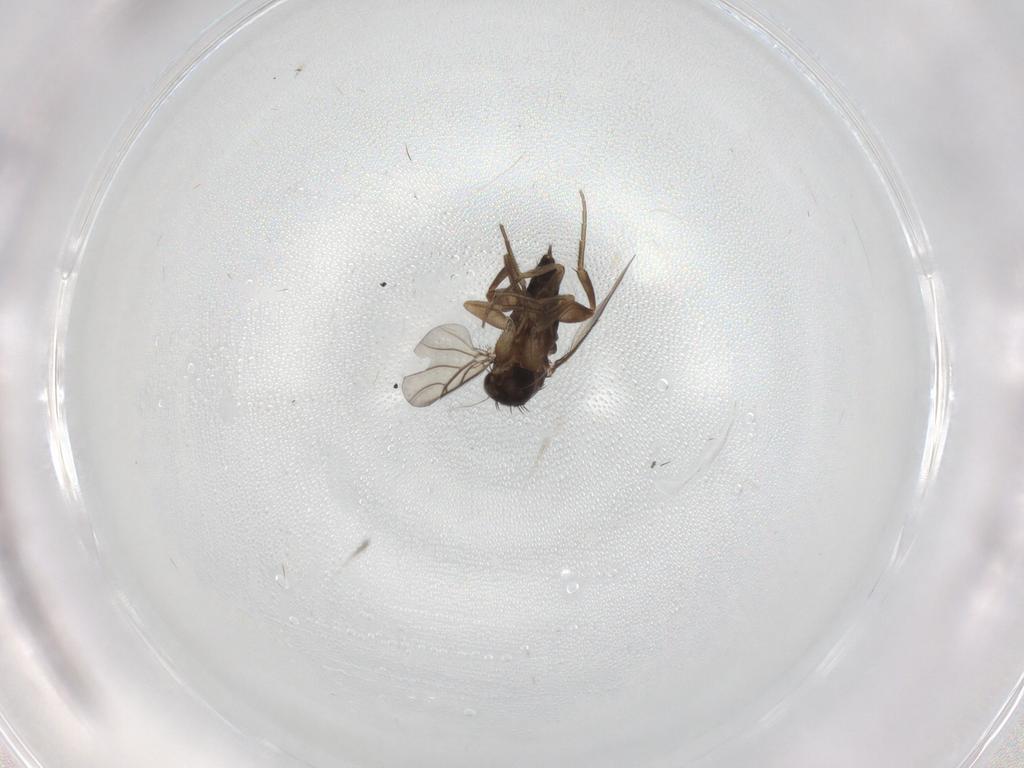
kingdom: Animalia
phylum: Arthropoda
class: Insecta
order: Diptera
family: Phoridae
